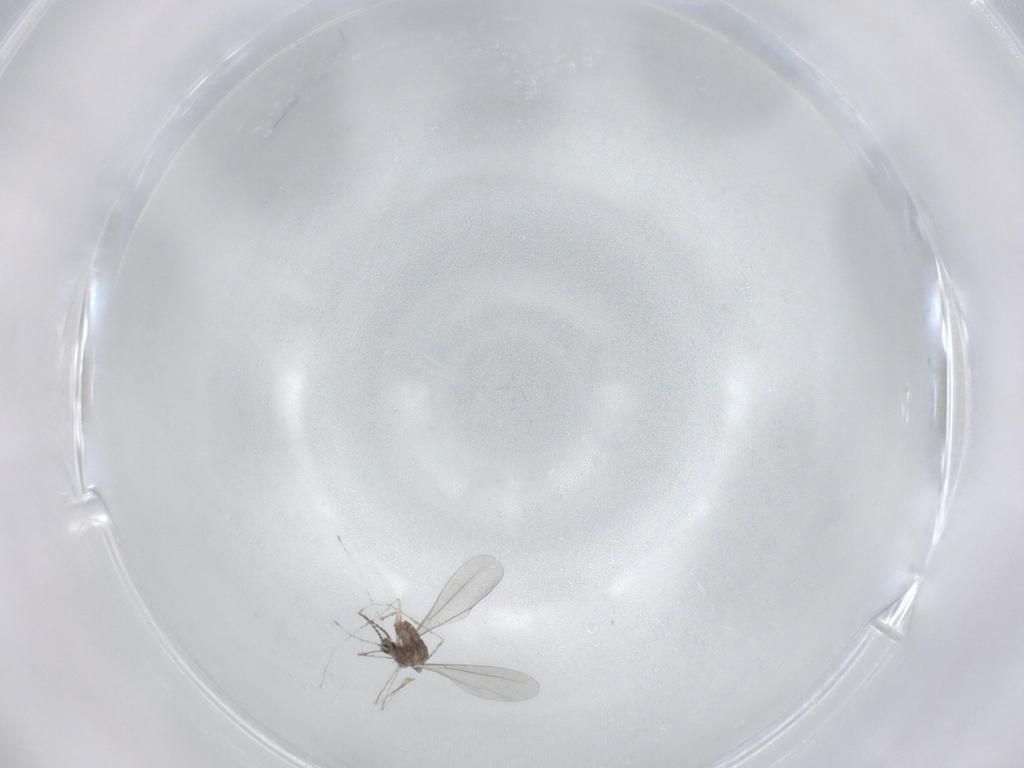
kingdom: Animalia
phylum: Arthropoda
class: Insecta
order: Diptera
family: Cecidomyiidae
